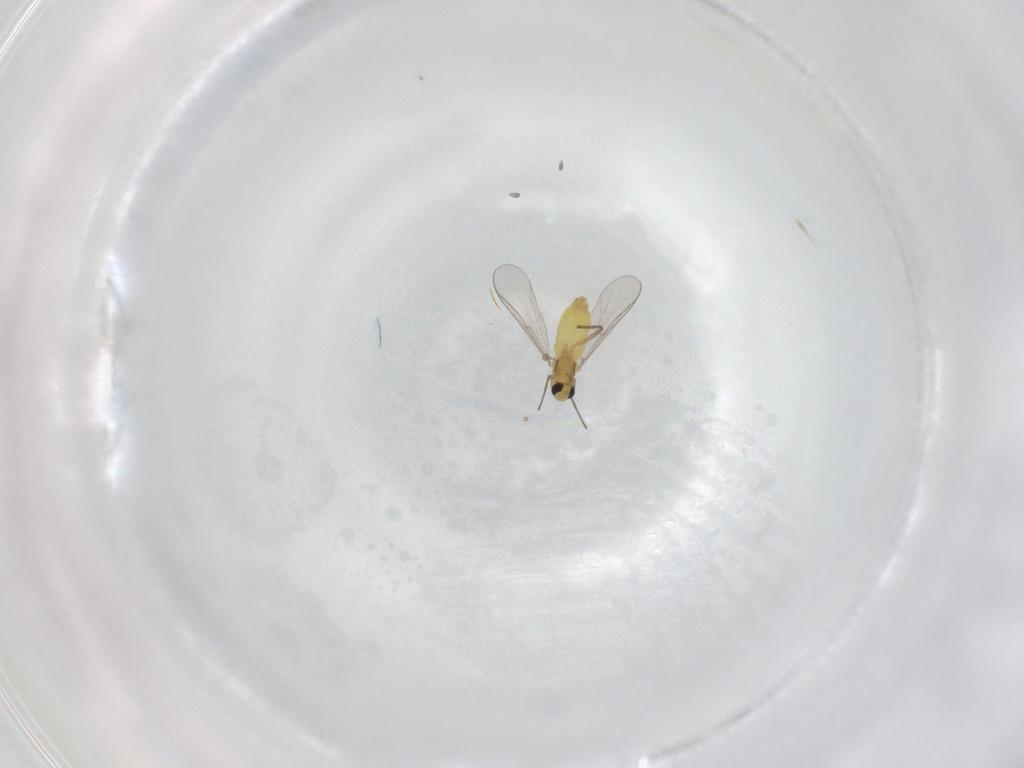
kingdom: Animalia
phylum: Arthropoda
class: Insecta
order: Diptera
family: Chironomidae
